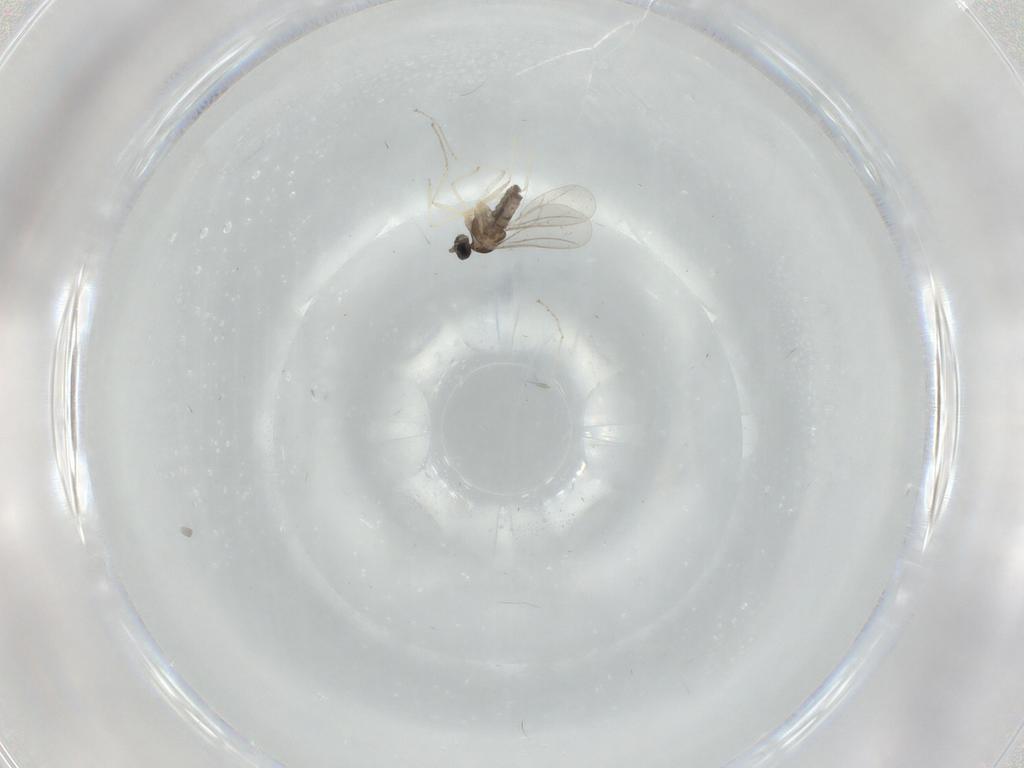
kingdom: Animalia
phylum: Arthropoda
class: Insecta
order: Diptera
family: Cecidomyiidae
